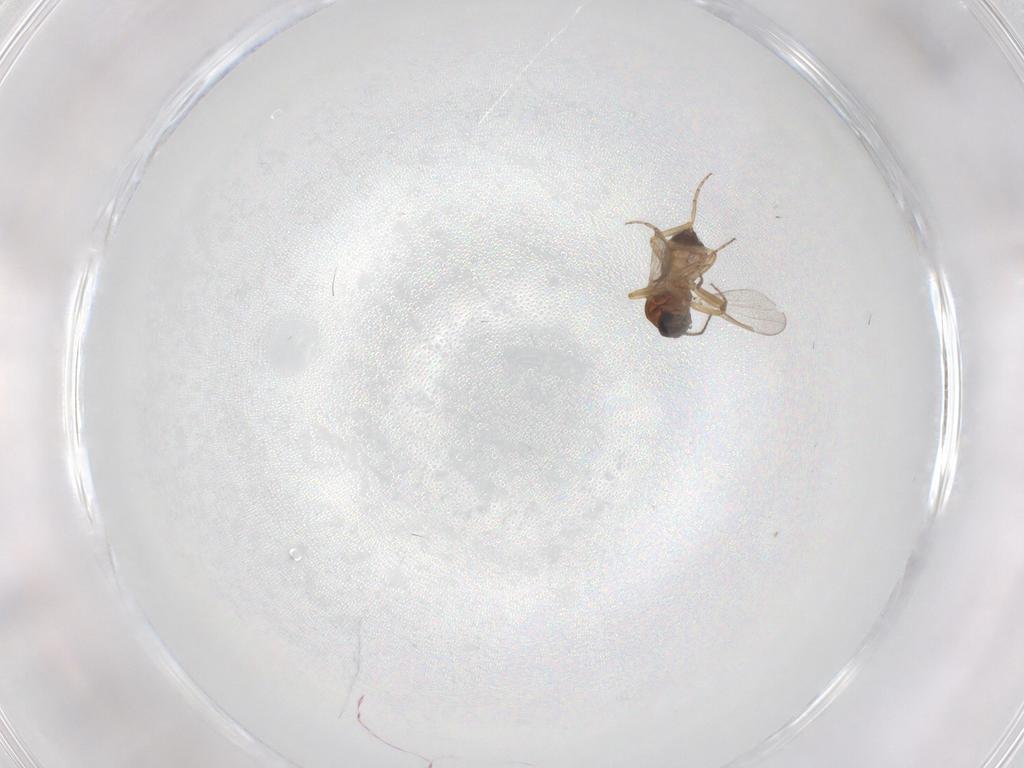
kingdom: Animalia
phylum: Arthropoda
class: Insecta
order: Diptera
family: Dolichopodidae
